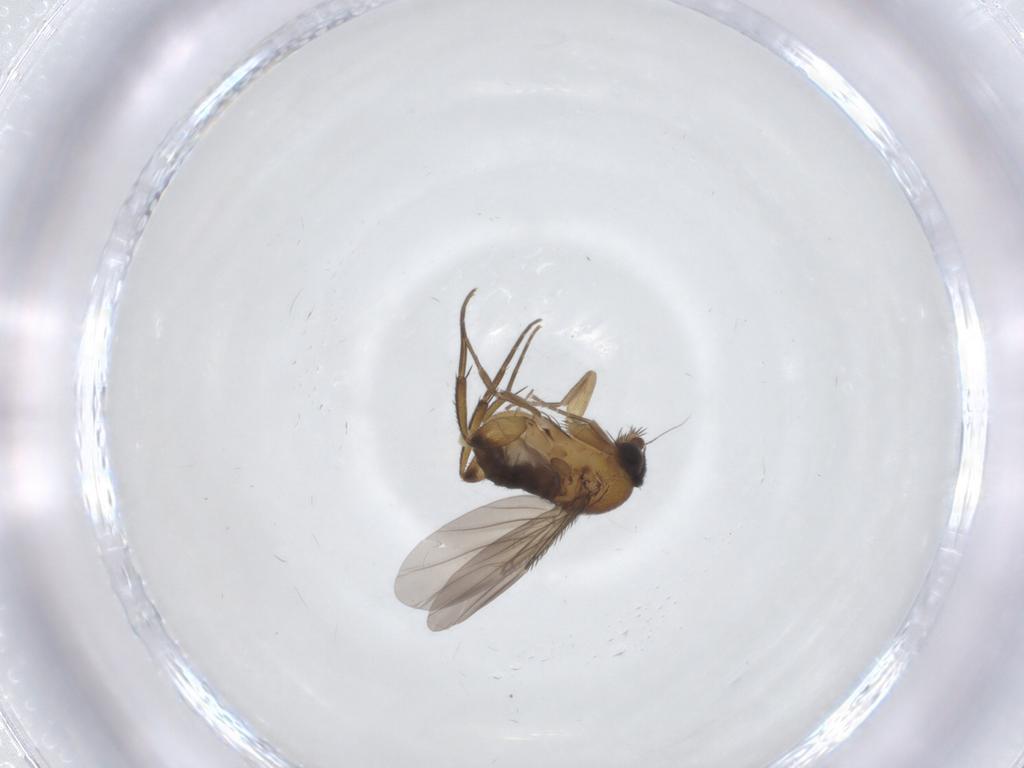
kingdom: Animalia
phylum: Arthropoda
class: Insecta
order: Diptera
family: Phoridae
